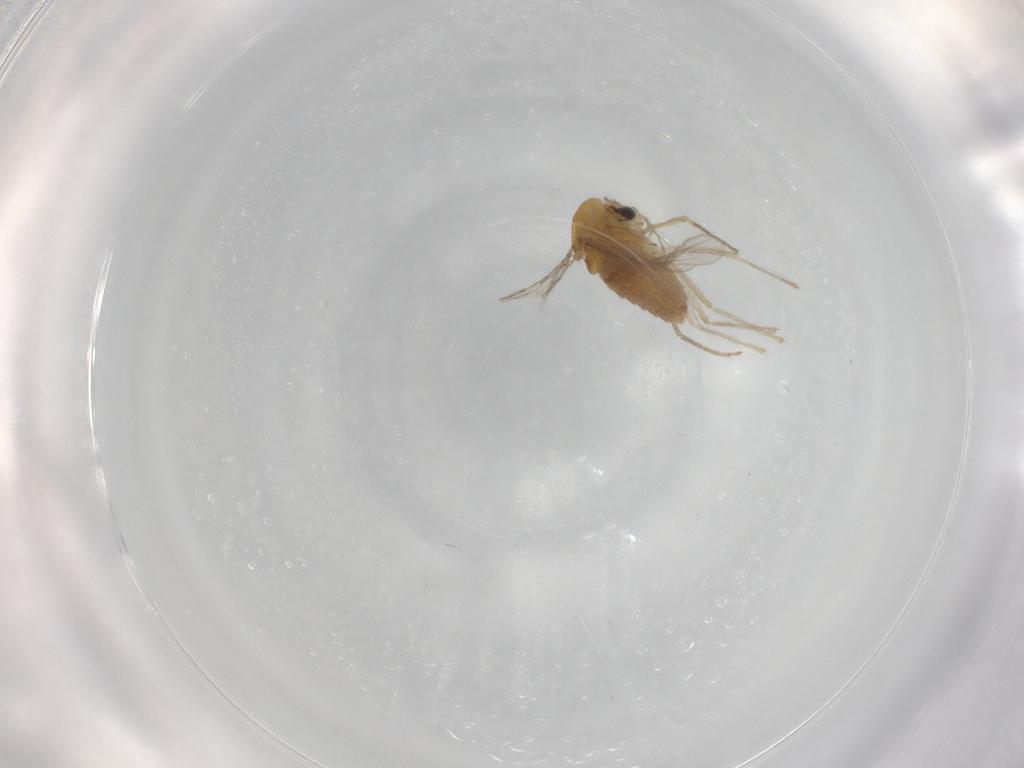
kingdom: Animalia
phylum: Arthropoda
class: Insecta
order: Diptera
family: Chironomidae
